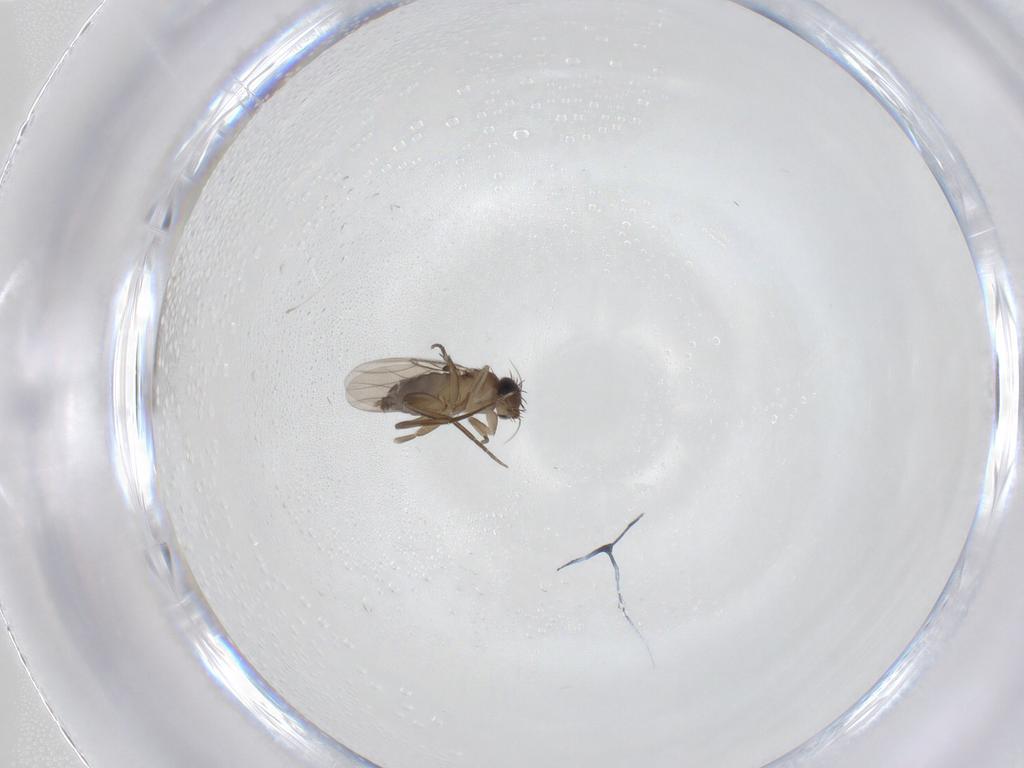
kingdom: Animalia
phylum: Arthropoda
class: Insecta
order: Diptera
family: Phoridae
